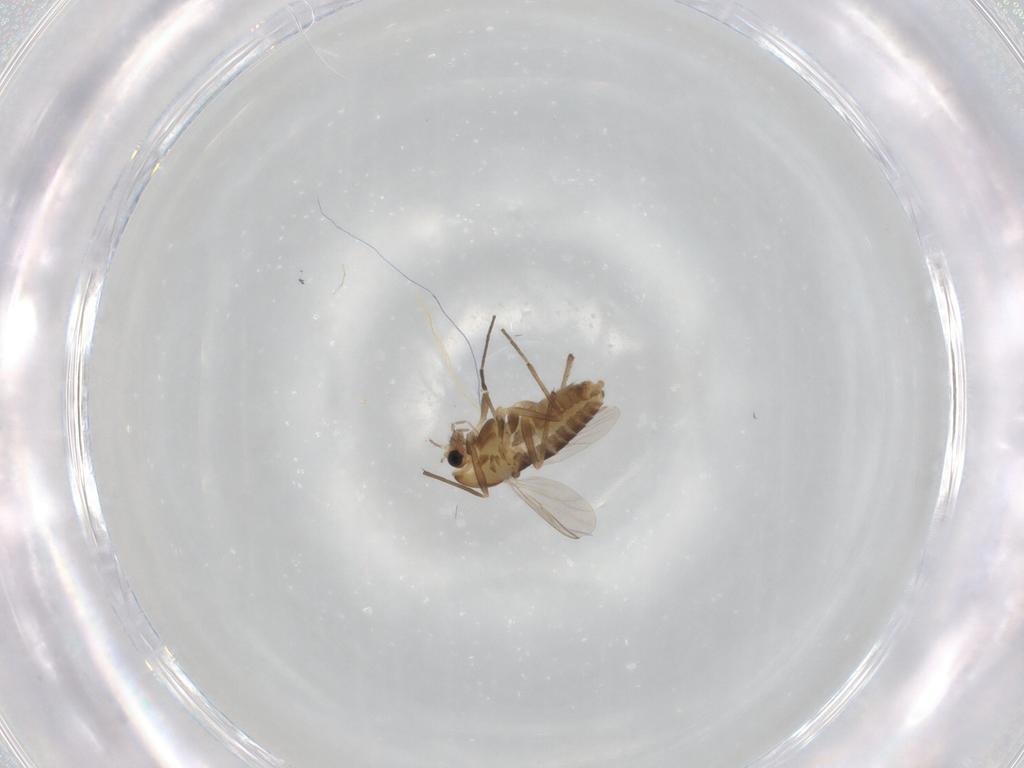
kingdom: Animalia
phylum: Arthropoda
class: Insecta
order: Diptera
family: Chironomidae
